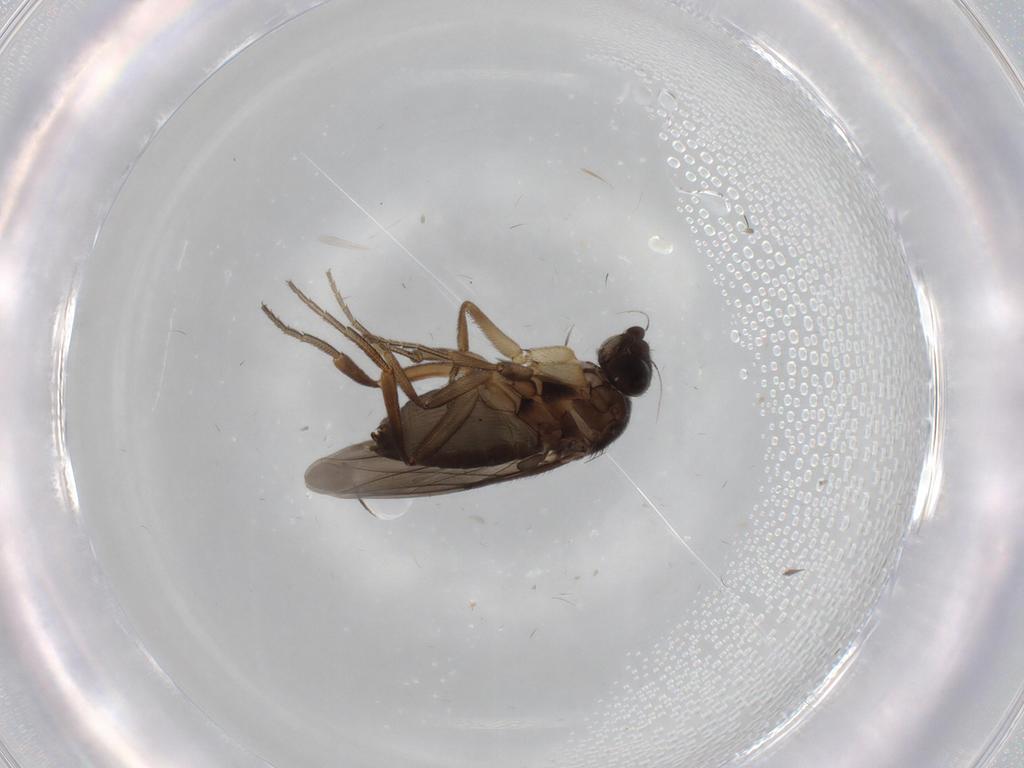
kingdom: Animalia
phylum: Arthropoda
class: Insecta
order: Diptera
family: Phoridae
